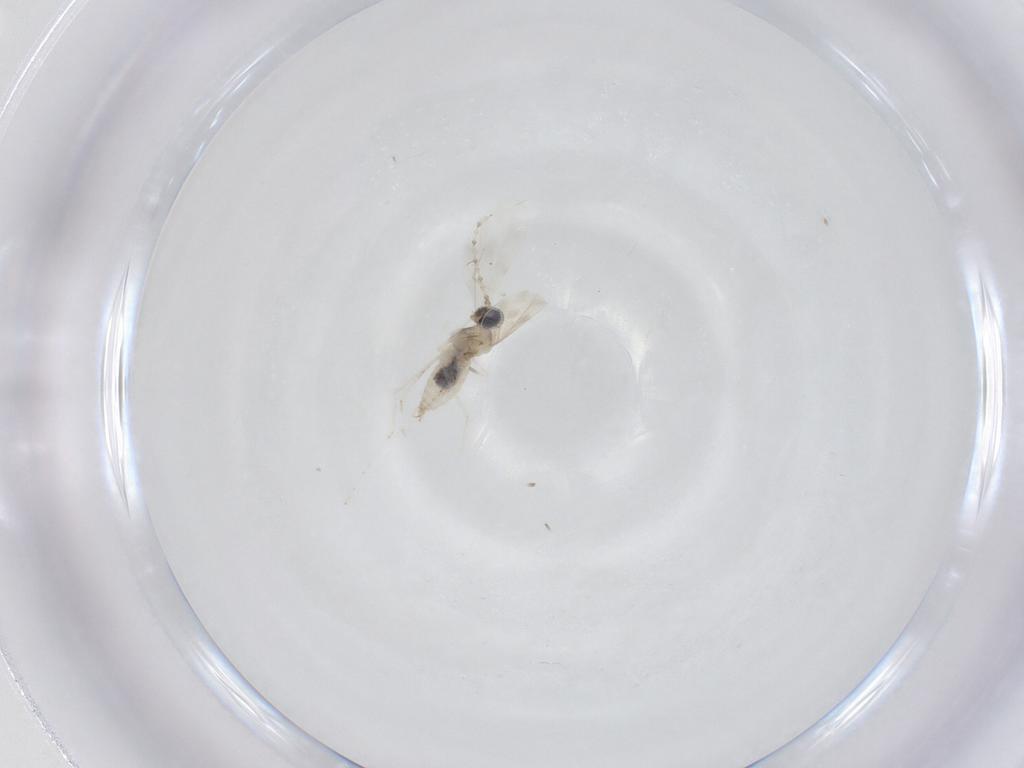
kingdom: Animalia
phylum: Arthropoda
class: Insecta
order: Diptera
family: Cecidomyiidae
